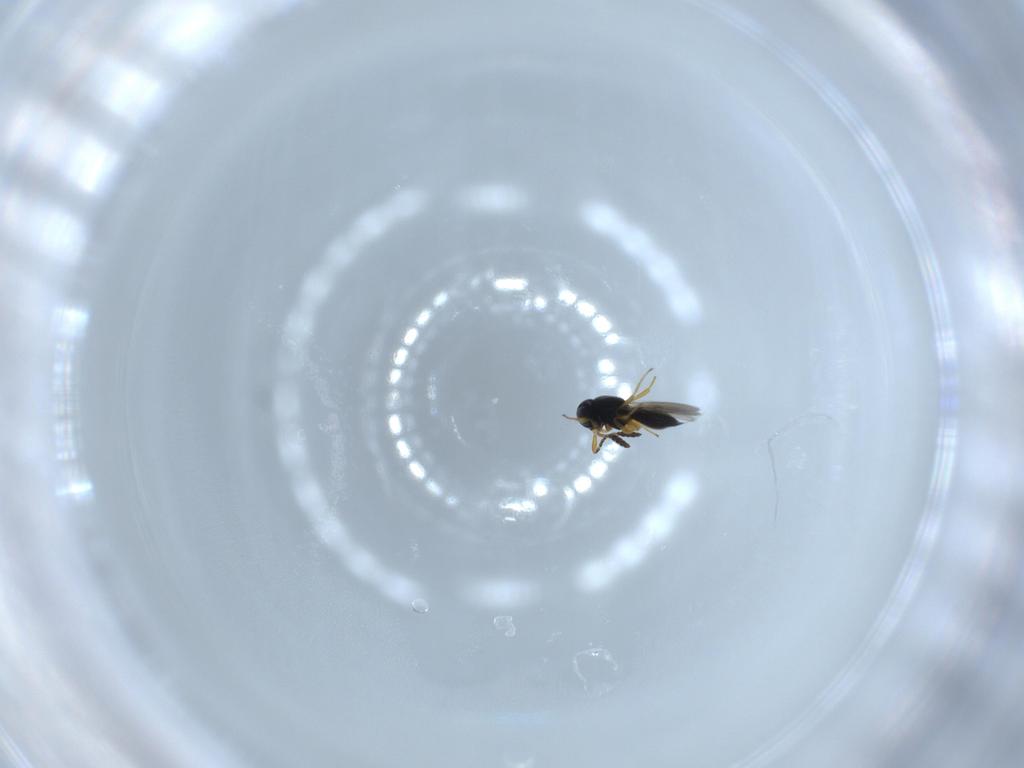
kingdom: Animalia
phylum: Arthropoda
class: Insecta
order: Hymenoptera
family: Scelionidae
